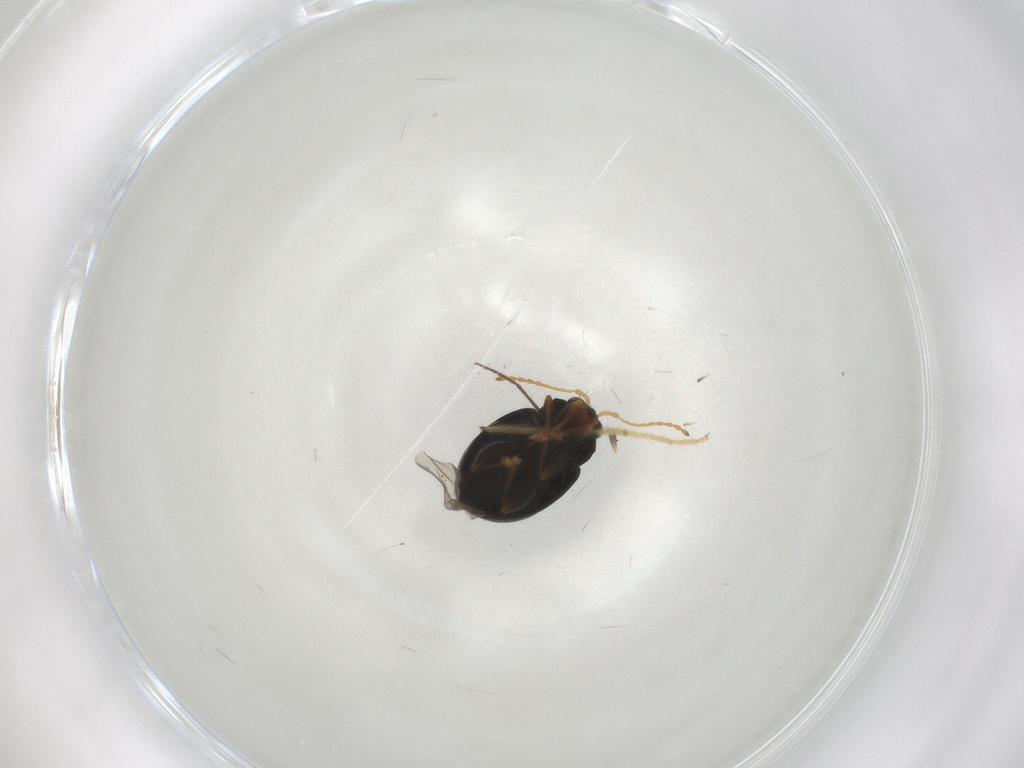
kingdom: Animalia
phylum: Arthropoda
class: Insecta
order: Coleoptera
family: Chrysomelidae
